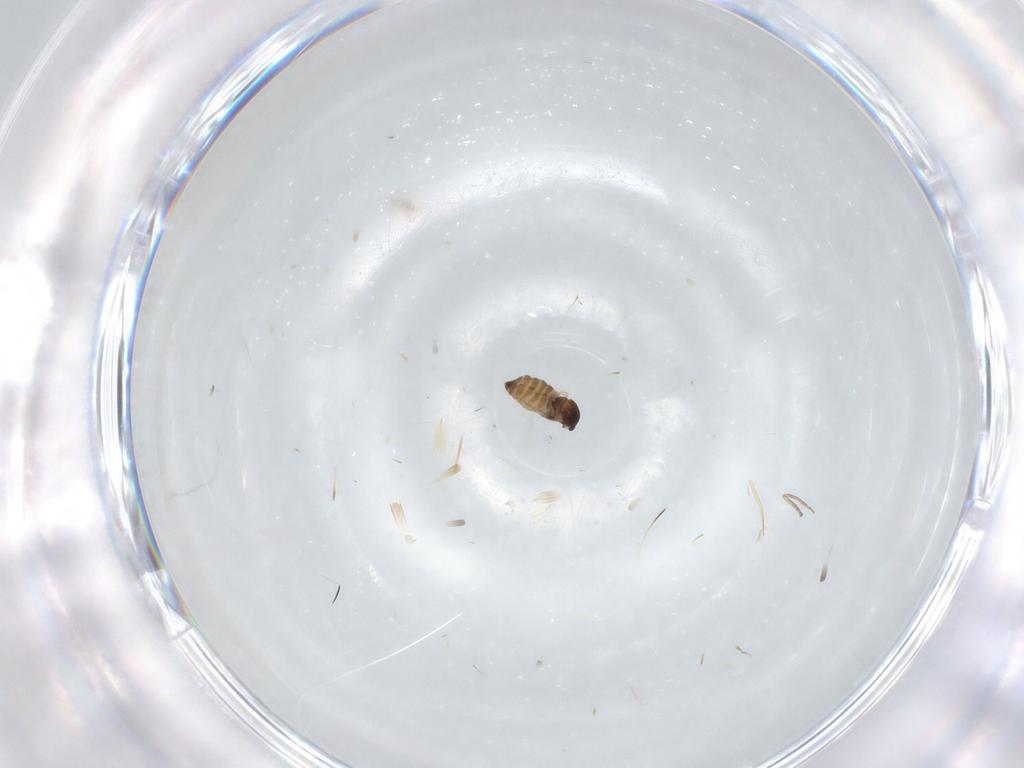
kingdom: Animalia
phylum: Arthropoda
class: Insecta
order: Diptera
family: Cecidomyiidae
